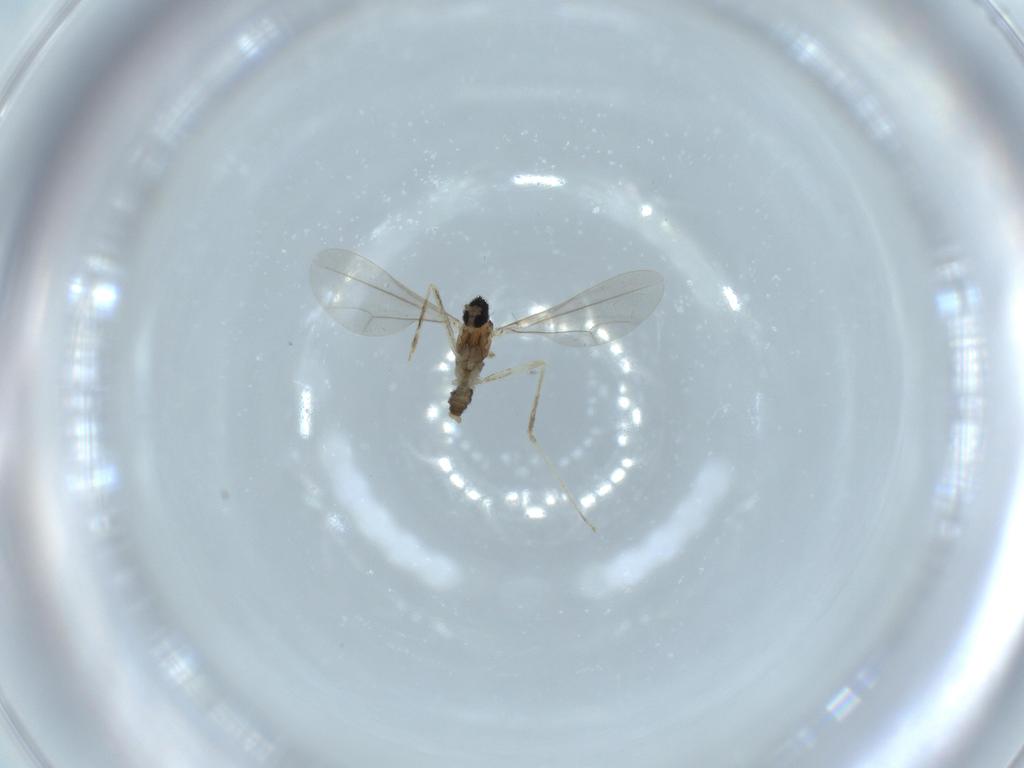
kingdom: Animalia
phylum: Arthropoda
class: Insecta
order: Diptera
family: Cecidomyiidae
